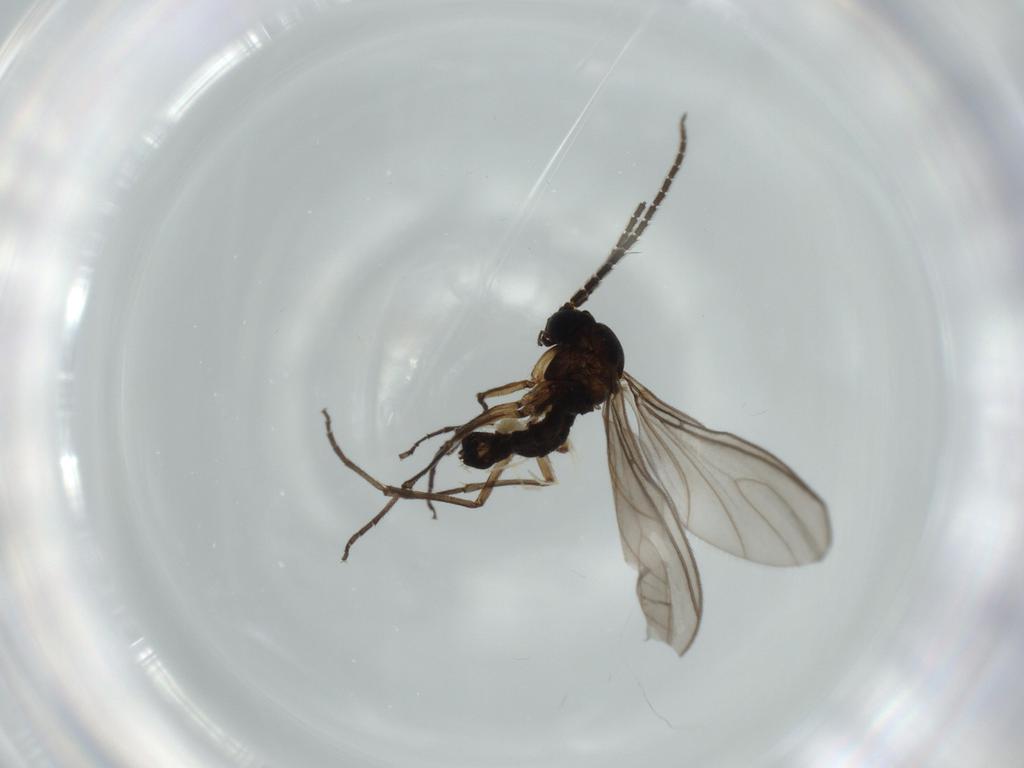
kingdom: Animalia
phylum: Arthropoda
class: Insecta
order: Diptera
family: Sciaridae
